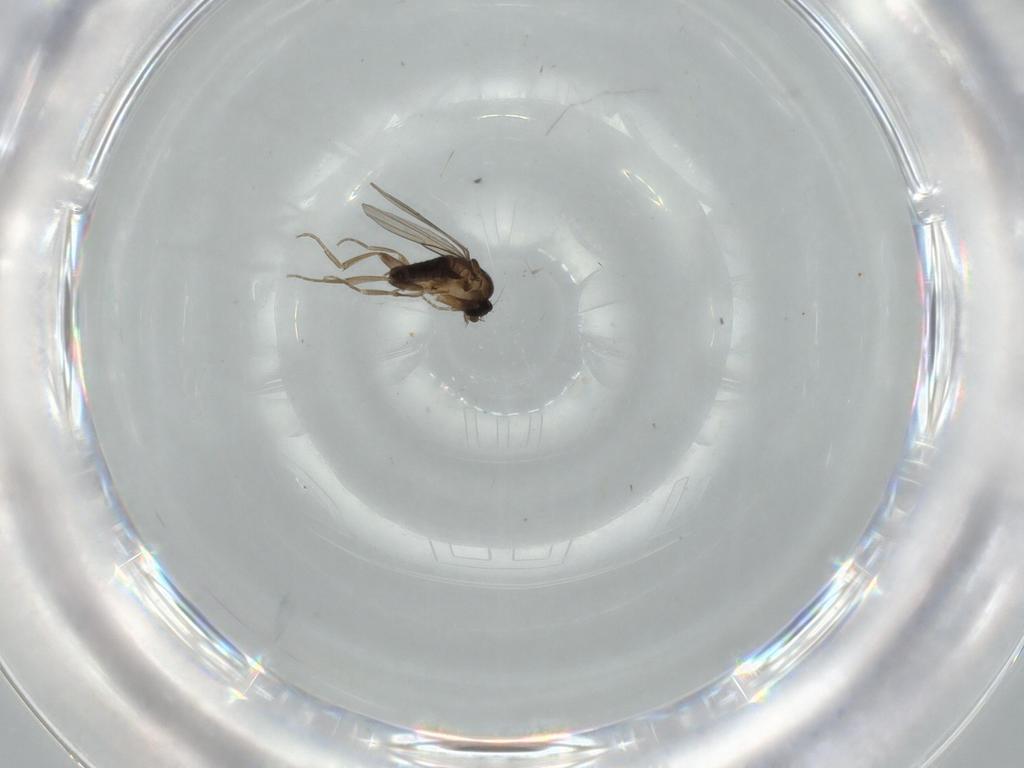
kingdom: Animalia
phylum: Arthropoda
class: Insecta
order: Diptera
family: Phoridae
